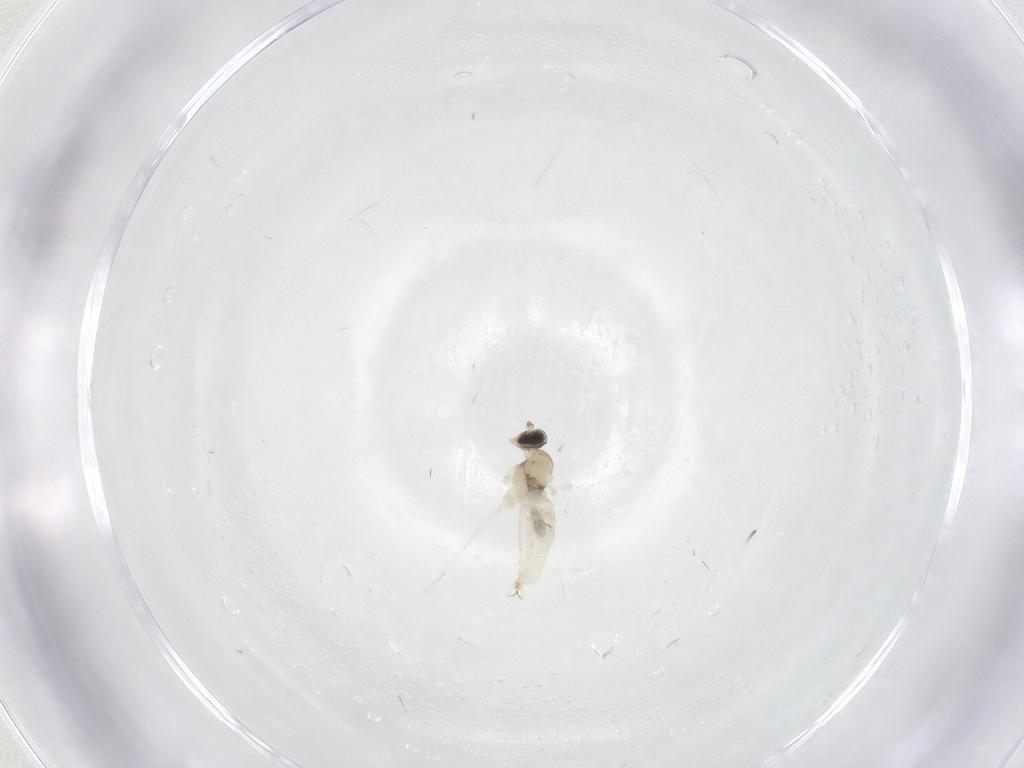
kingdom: Animalia
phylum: Arthropoda
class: Insecta
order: Diptera
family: Cecidomyiidae
